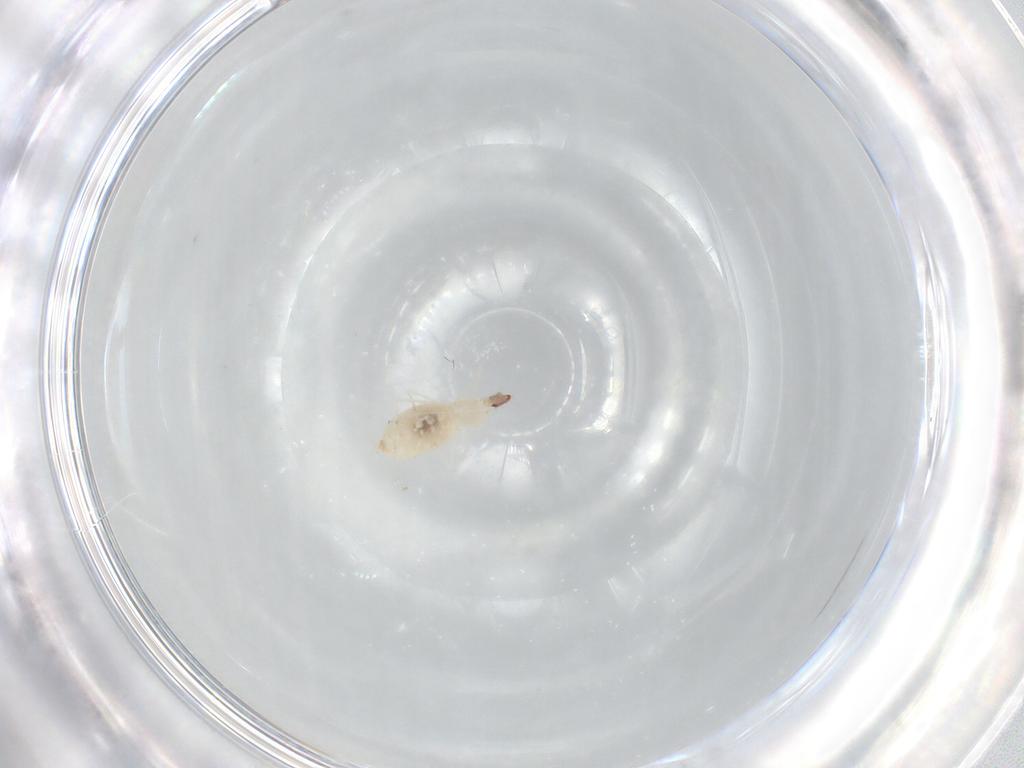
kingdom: Animalia
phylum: Arthropoda
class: Insecta
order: Diptera
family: Cecidomyiidae
